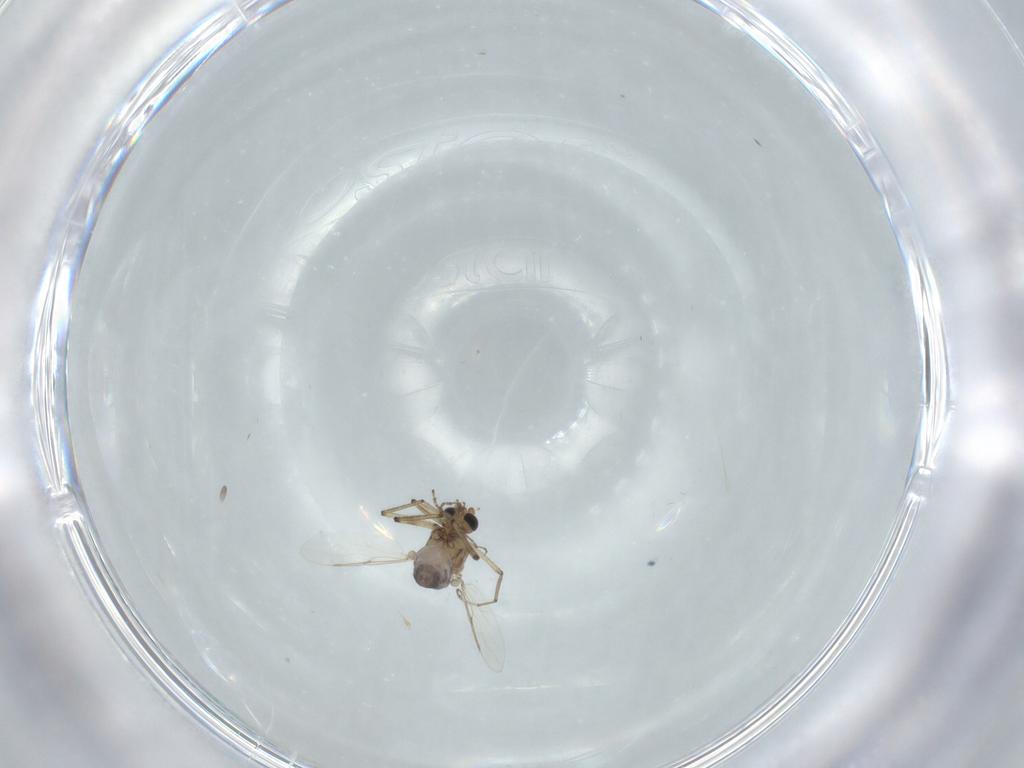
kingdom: Animalia
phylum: Arthropoda
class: Insecta
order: Diptera
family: Ceratopogonidae
